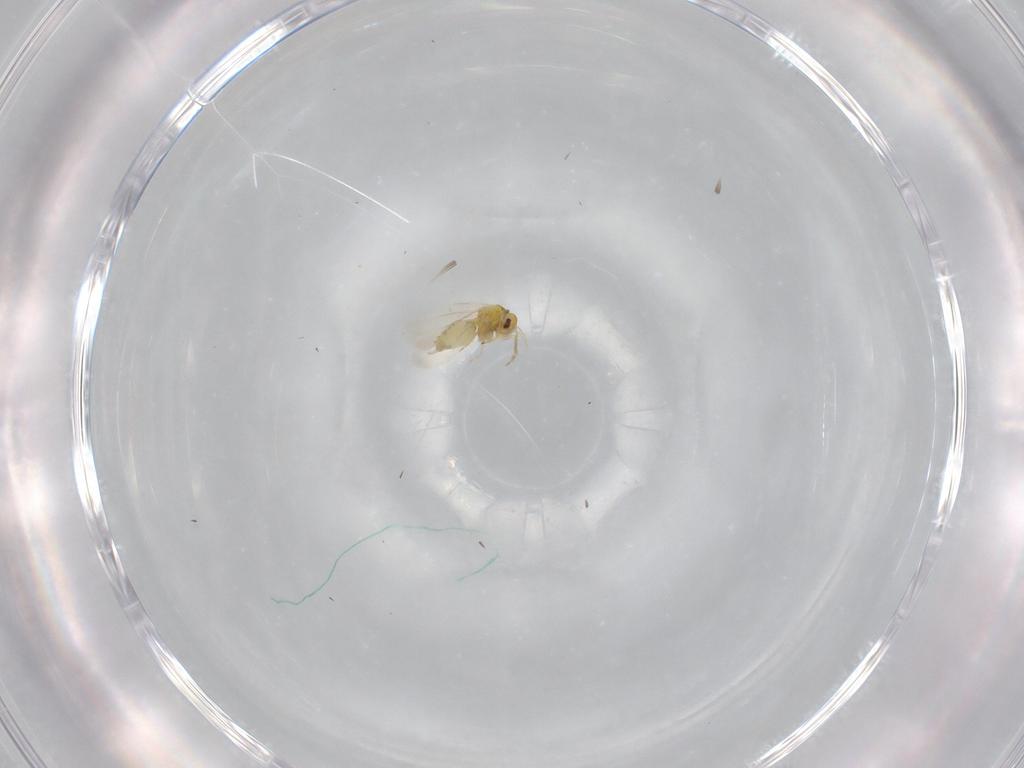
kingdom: Animalia
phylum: Arthropoda
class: Insecta
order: Hemiptera
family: Aleyrodidae
